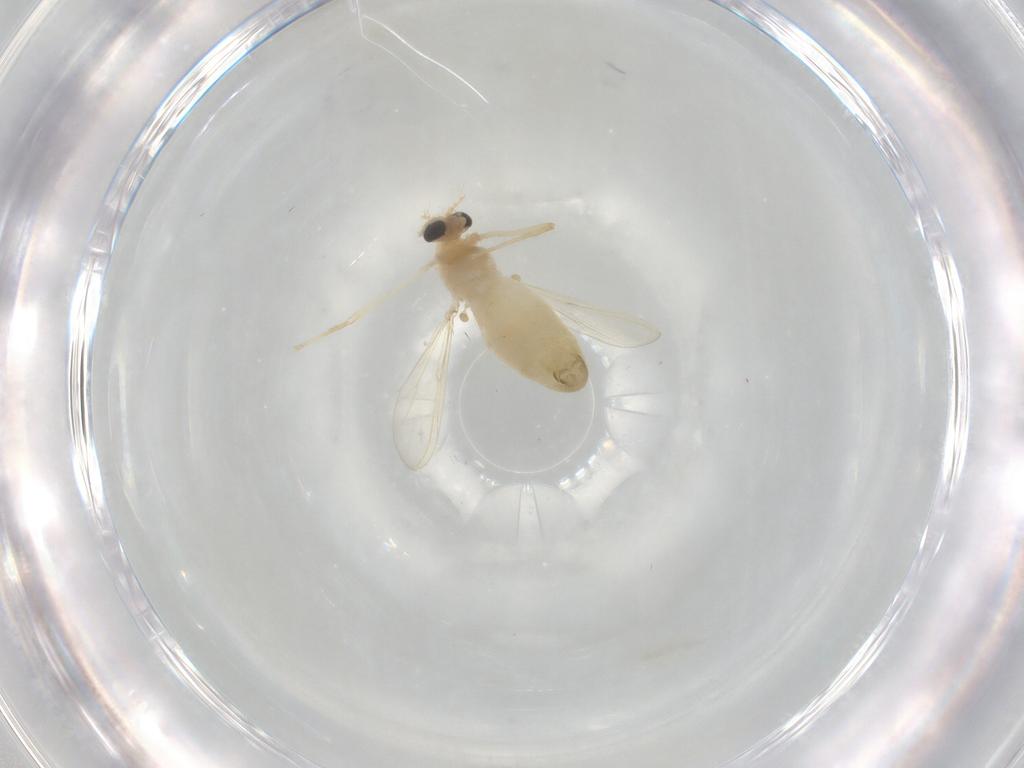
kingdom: Animalia
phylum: Arthropoda
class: Insecta
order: Diptera
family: Chironomidae
